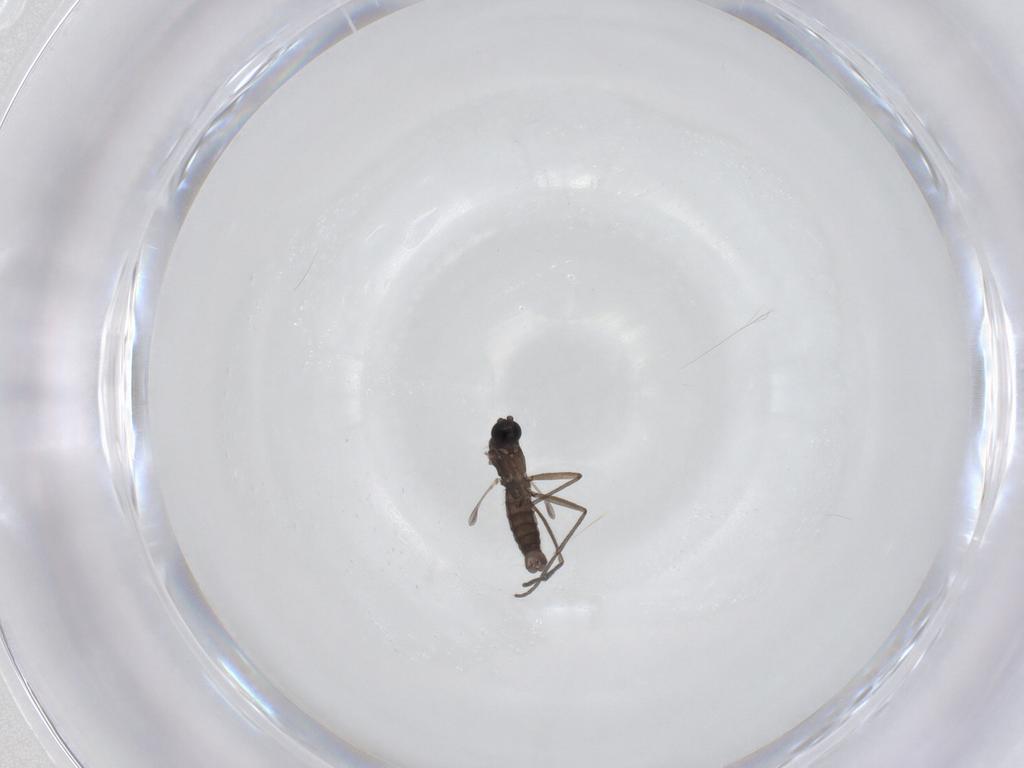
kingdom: Animalia
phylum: Arthropoda
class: Insecta
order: Diptera
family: Sciaridae
